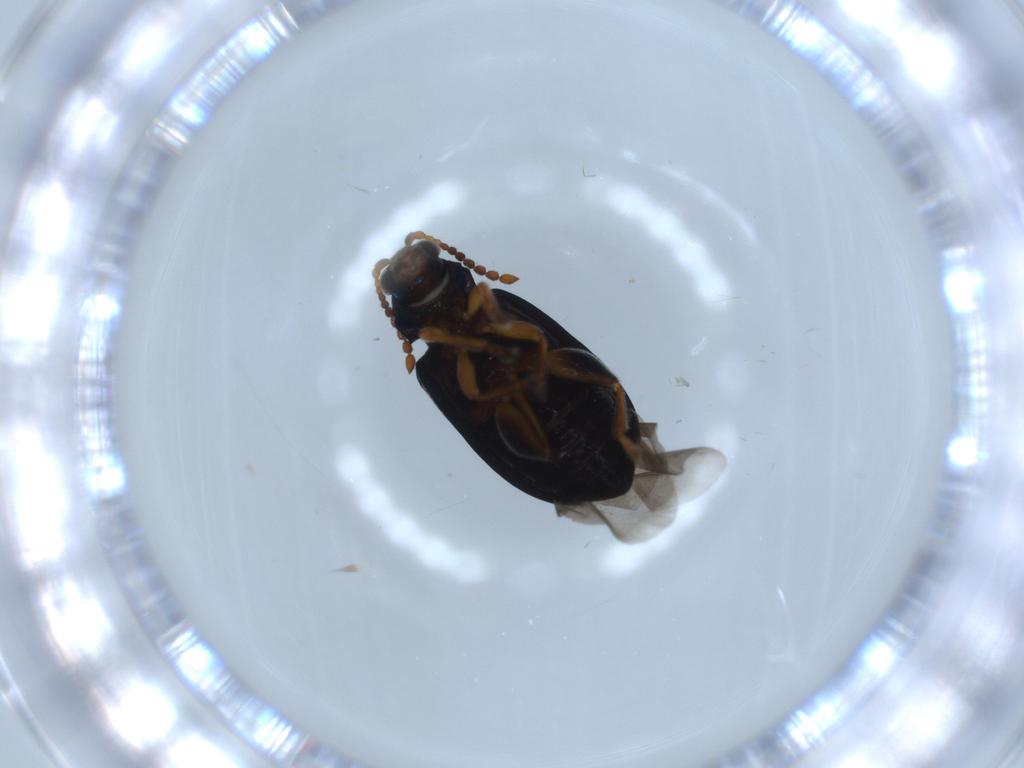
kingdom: Animalia
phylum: Arthropoda
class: Insecta
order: Coleoptera
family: Chrysomelidae
